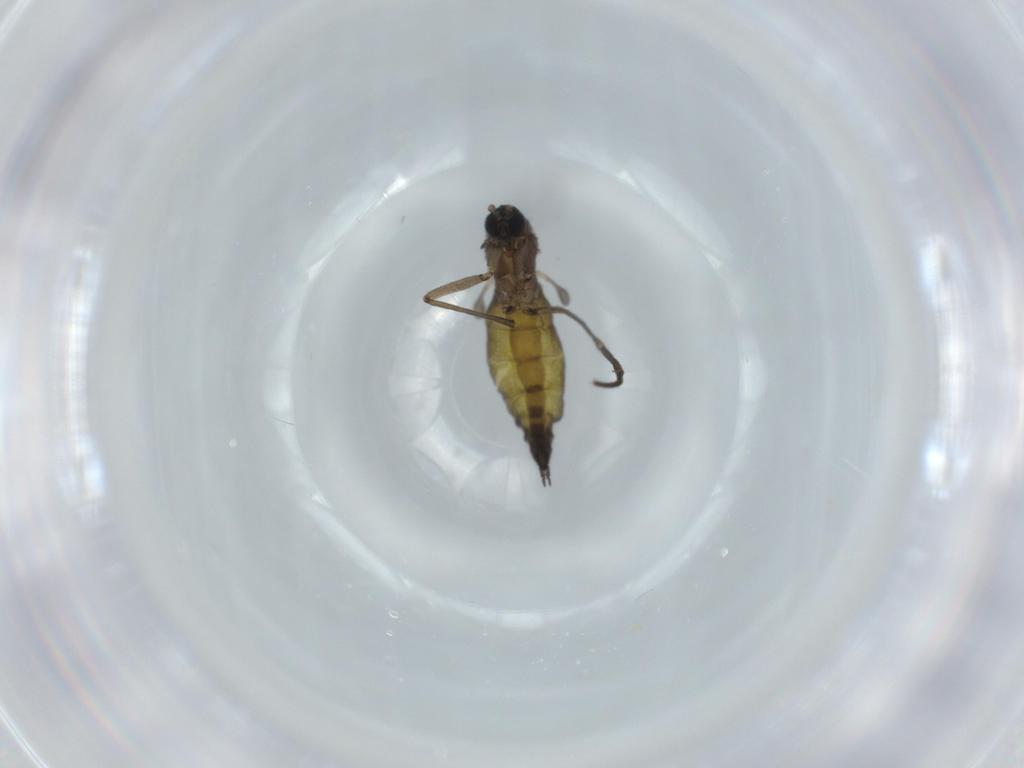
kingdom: Animalia
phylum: Arthropoda
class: Insecta
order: Diptera
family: Sciaridae
